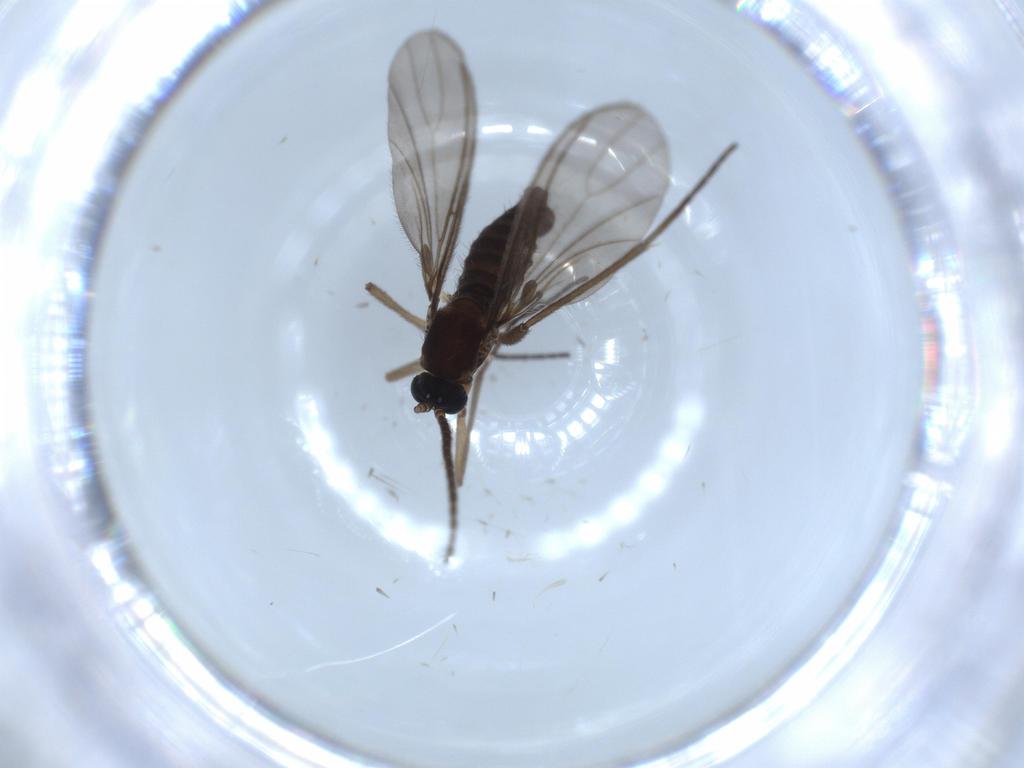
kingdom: Animalia
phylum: Arthropoda
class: Insecta
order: Diptera
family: Sciaridae
